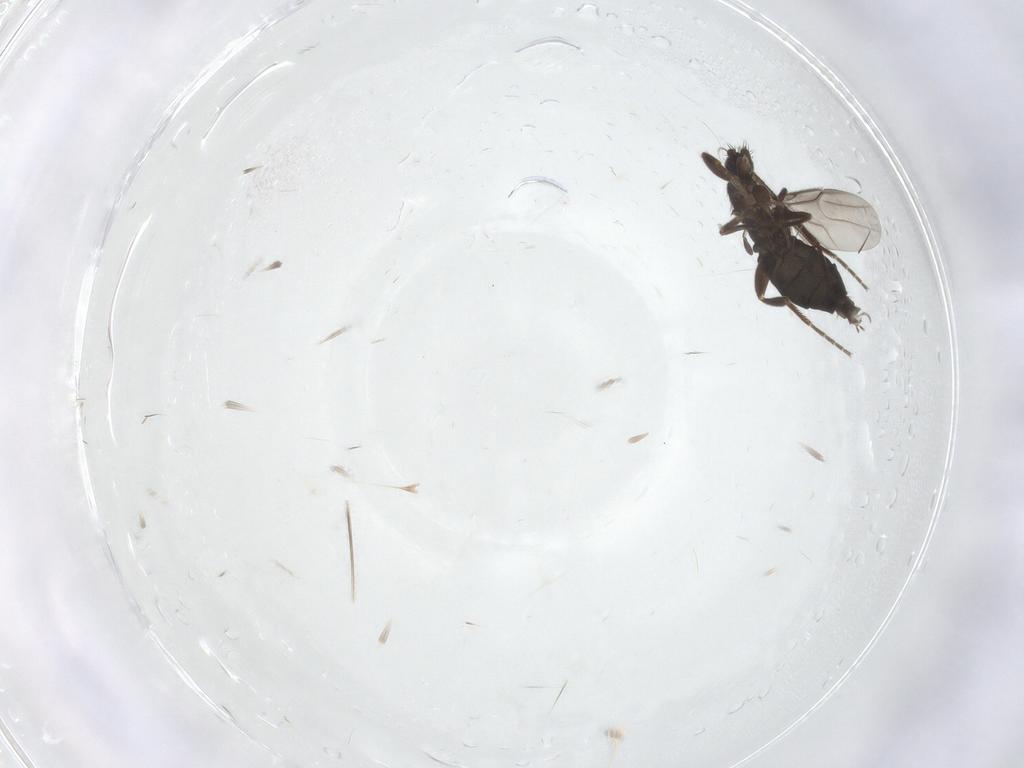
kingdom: Animalia
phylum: Arthropoda
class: Insecta
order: Diptera
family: Phoridae
